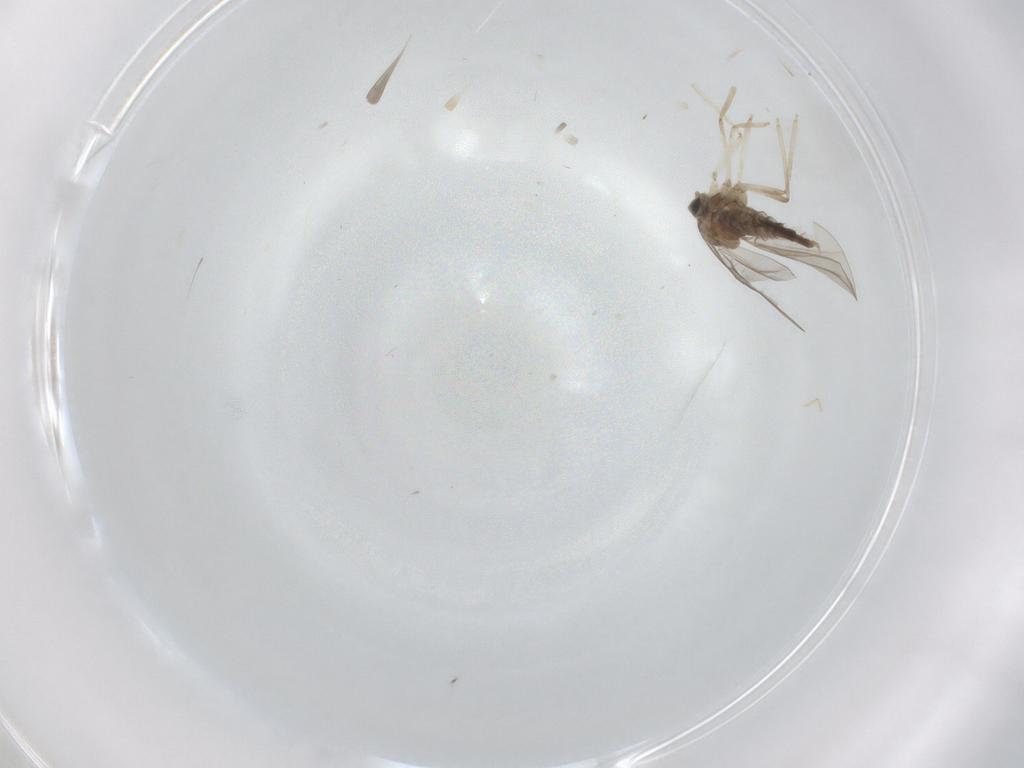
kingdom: Animalia
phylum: Arthropoda
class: Insecta
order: Diptera
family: Cecidomyiidae
